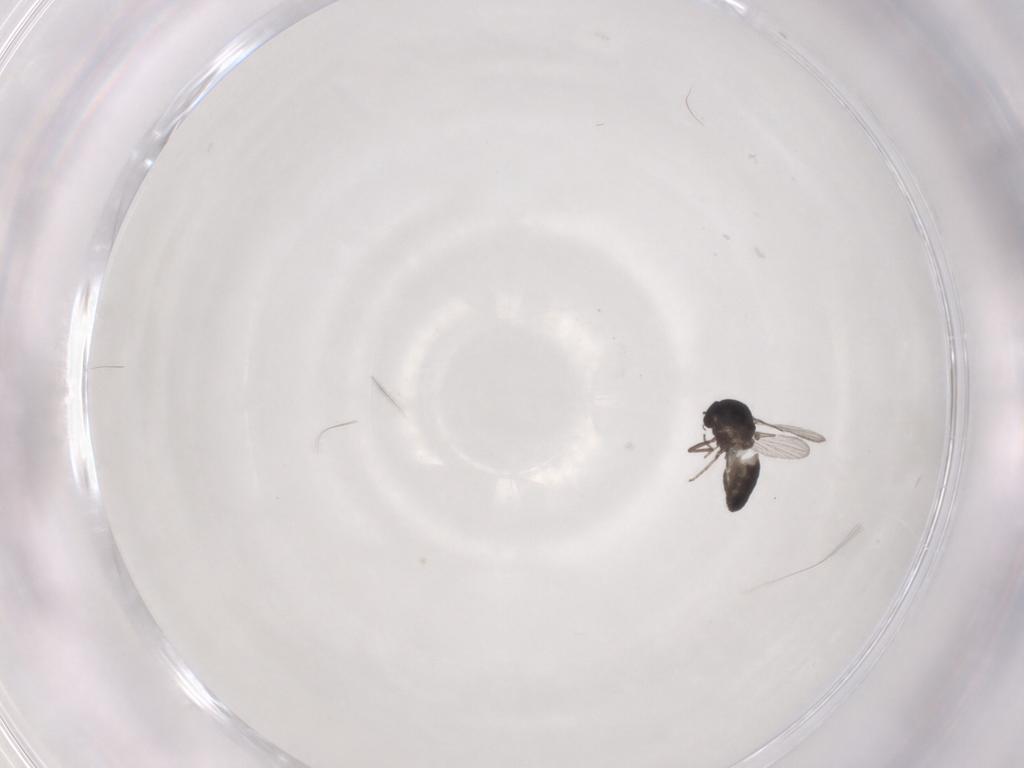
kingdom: Animalia
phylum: Arthropoda
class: Insecta
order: Diptera
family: Ceratopogonidae
